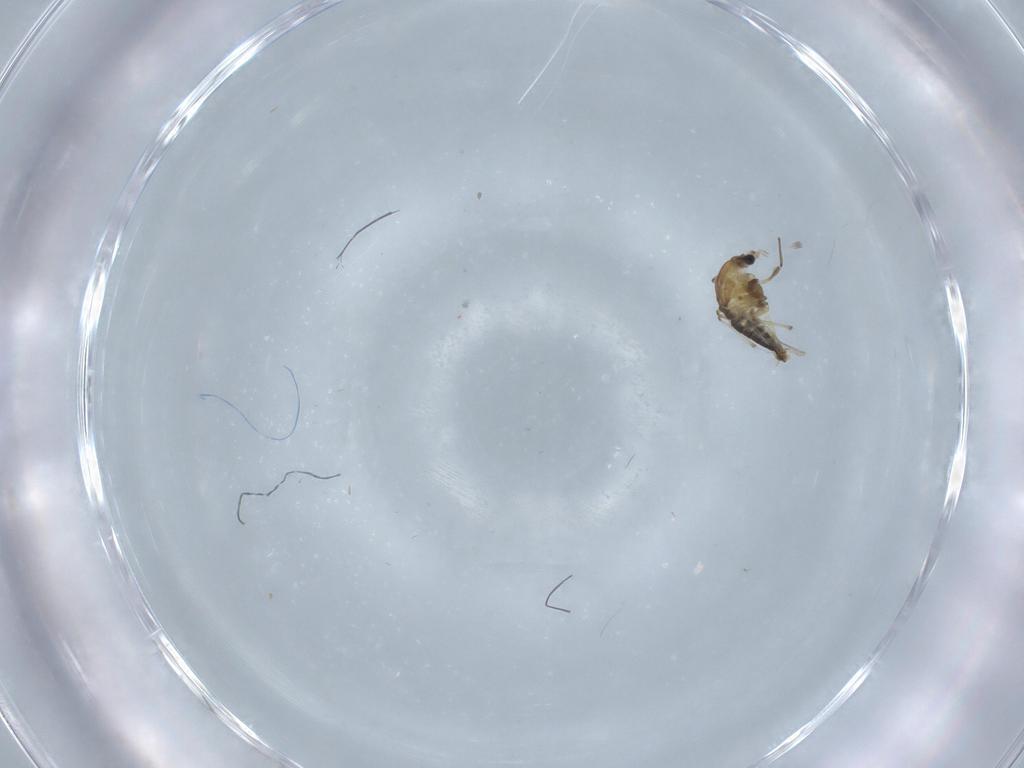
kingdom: Animalia
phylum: Arthropoda
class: Insecta
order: Diptera
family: Chironomidae
